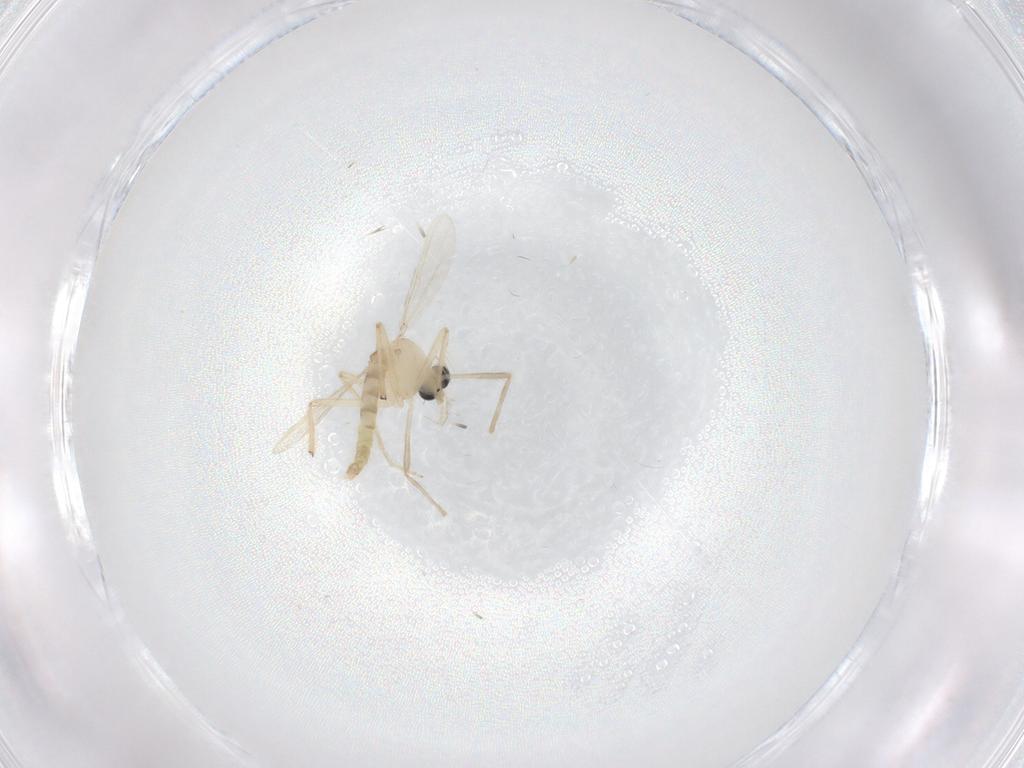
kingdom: Animalia
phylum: Arthropoda
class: Insecta
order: Diptera
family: Chironomidae
